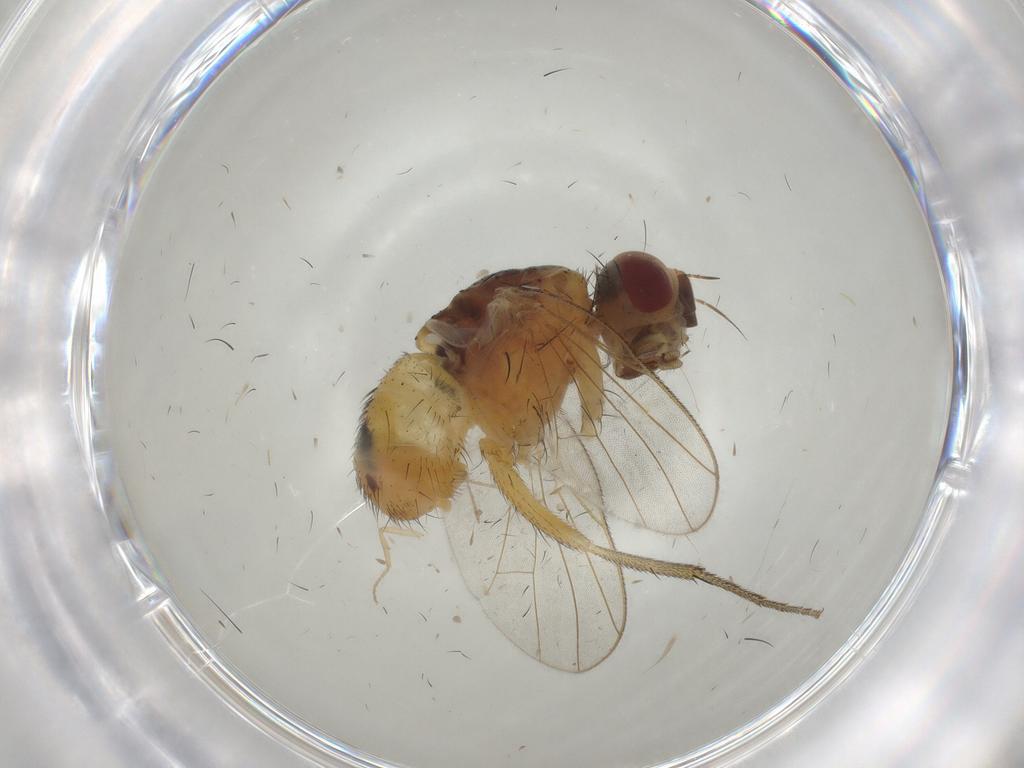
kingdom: Animalia
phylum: Arthropoda
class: Insecta
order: Diptera
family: Muscidae
